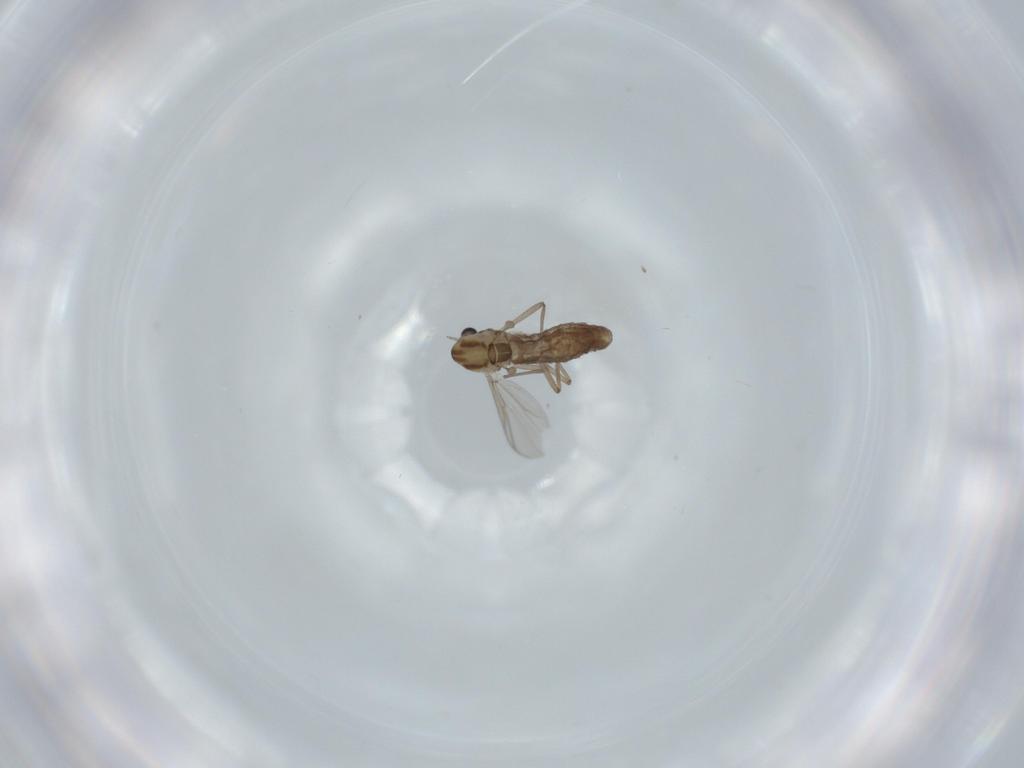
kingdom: Animalia
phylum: Arthropoda
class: Insecta
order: Diptera
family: Chironomidae
